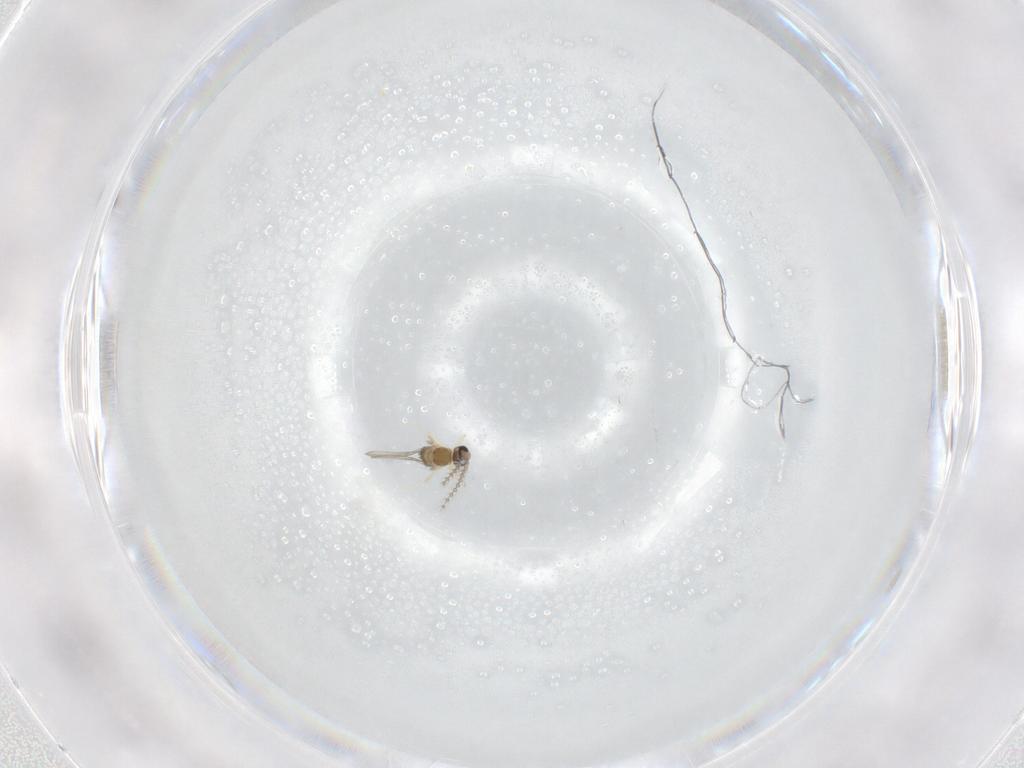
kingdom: Animalia
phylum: Arthropoda
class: Insecta
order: Diptera
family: Cecidomyiidae
